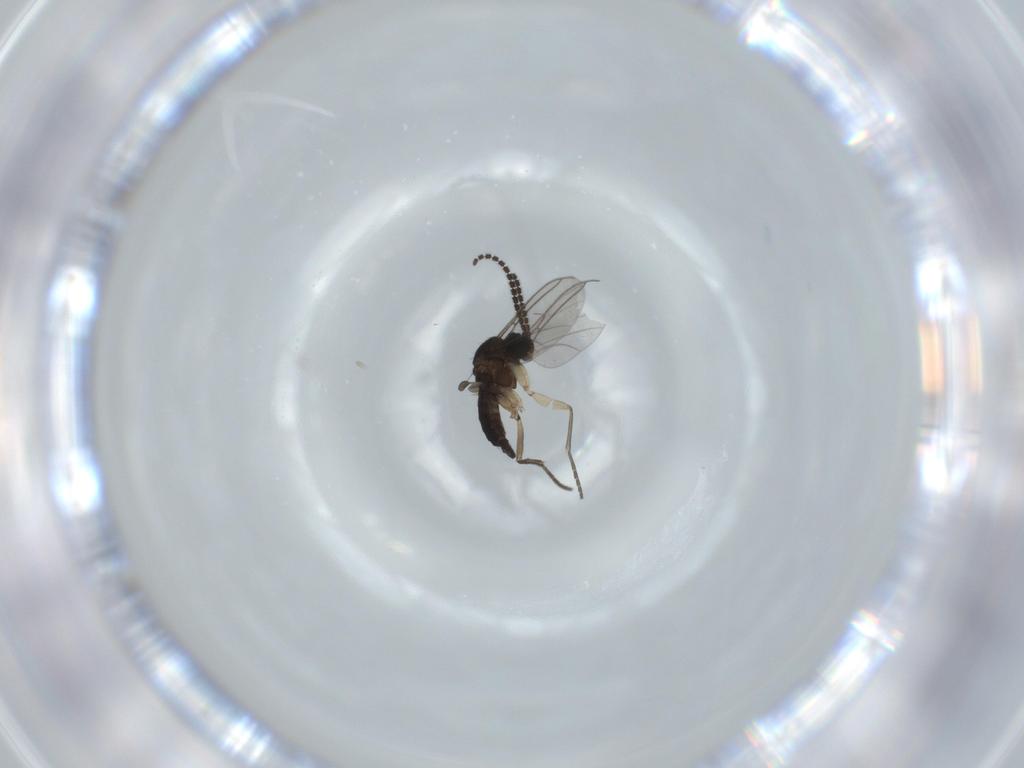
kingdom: Animalia
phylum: Arthropoda
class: Insecta
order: Diptera
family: Sciaridae
